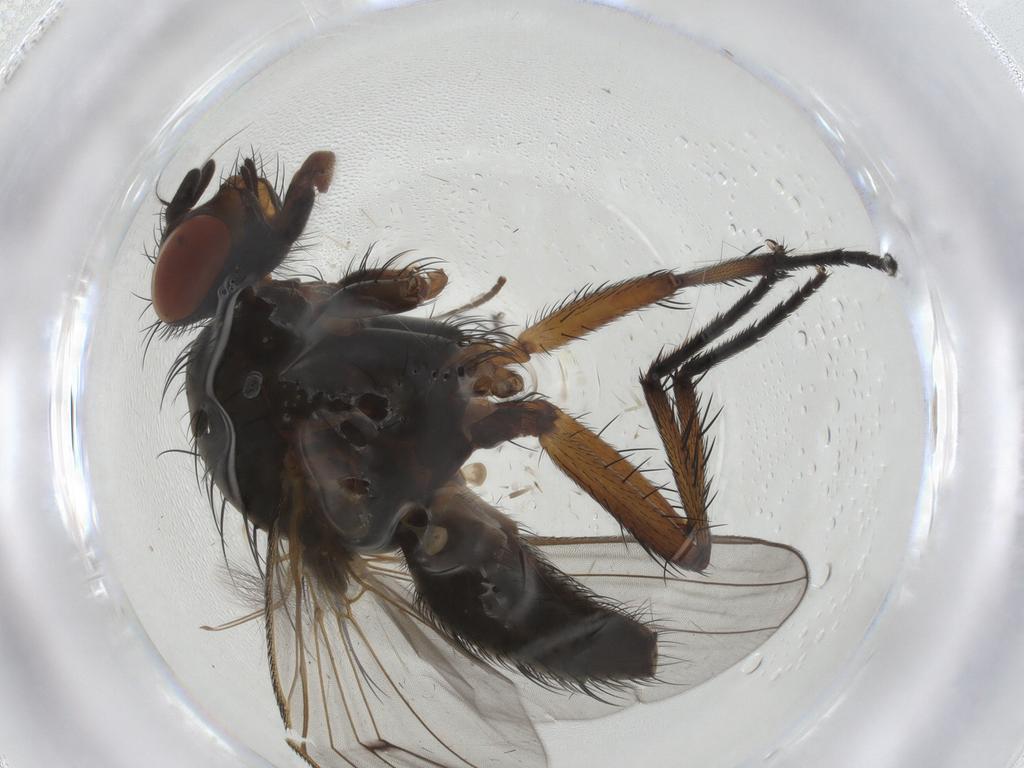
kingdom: Animalia
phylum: Arthropoda
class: Insecta
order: Diptera
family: Anthomyiidae
